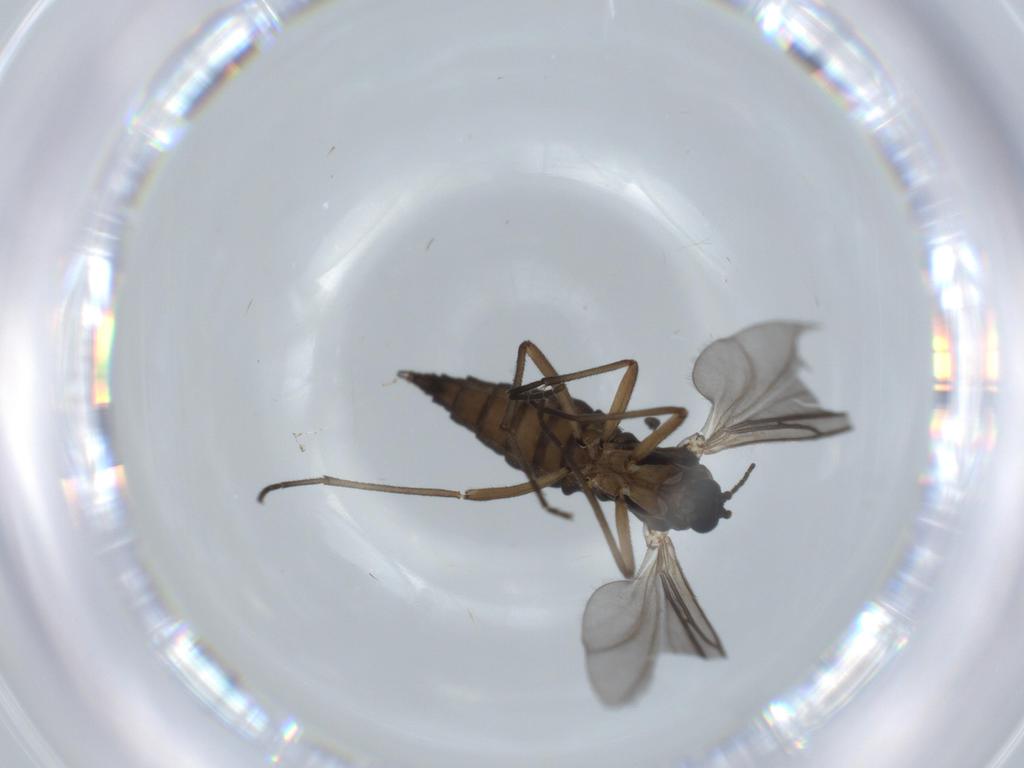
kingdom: Animalia
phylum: Arthropoda
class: Insecta
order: Diptera
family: Sciaridae
